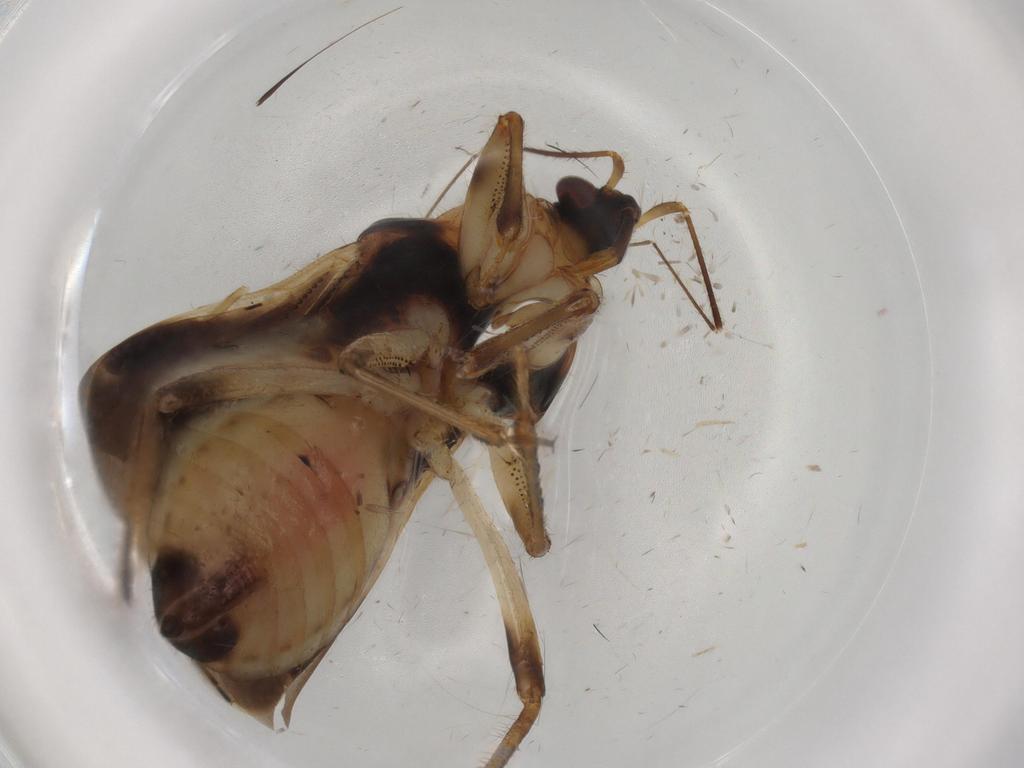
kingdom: Animalia
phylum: Arthropoda
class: Insecta
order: Hemiptera
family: Nabidae
